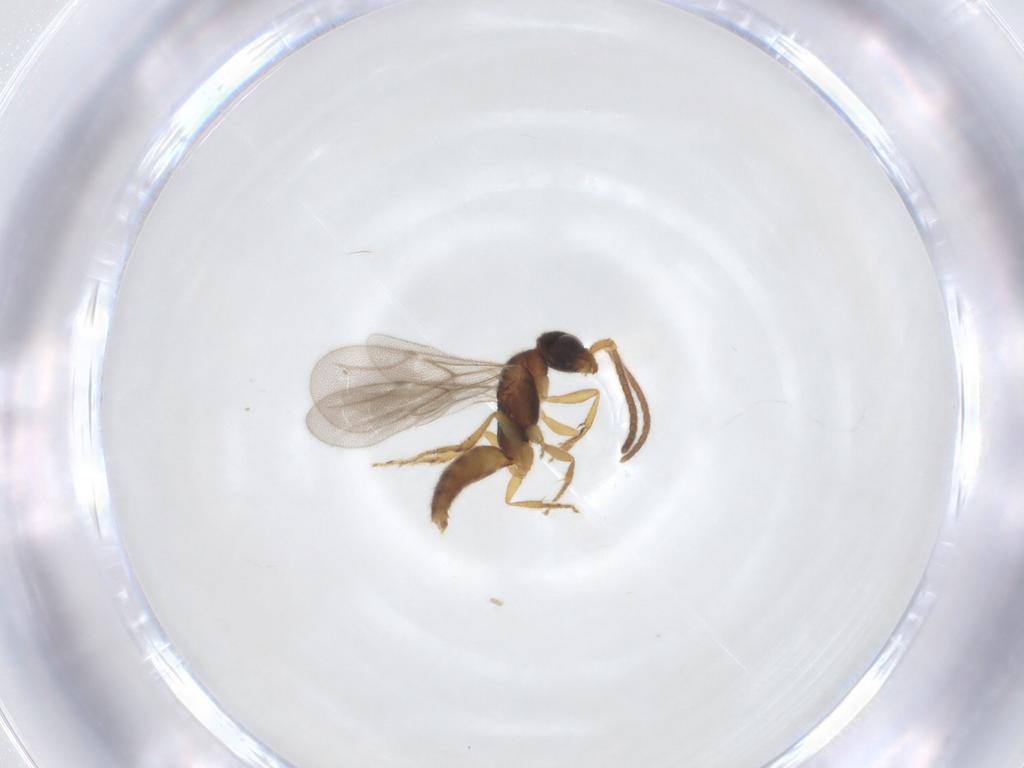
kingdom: Animalia
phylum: Arthropoda
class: Insecta
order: Hymenoptera
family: Bethylidae
